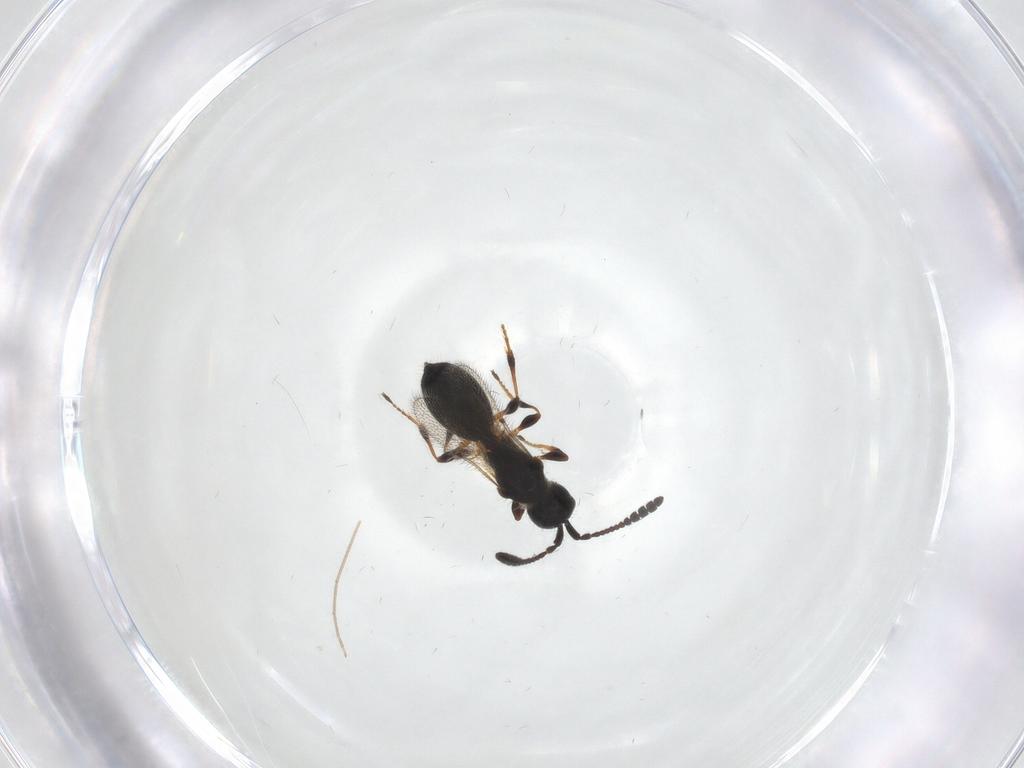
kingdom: Animalia
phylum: Arthropoda
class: Insecta
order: Hymenoptera
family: Diapriidae
